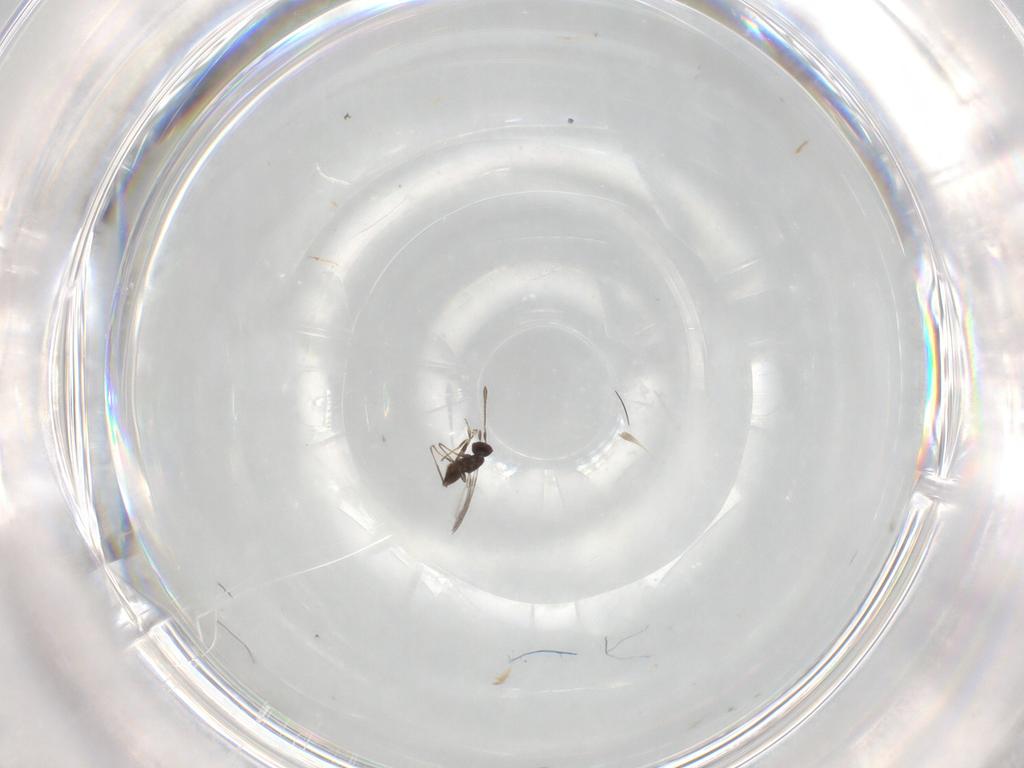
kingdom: Animalia
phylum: Arthropoda
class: Insecta
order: Hymenoptera
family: Mymaridae
